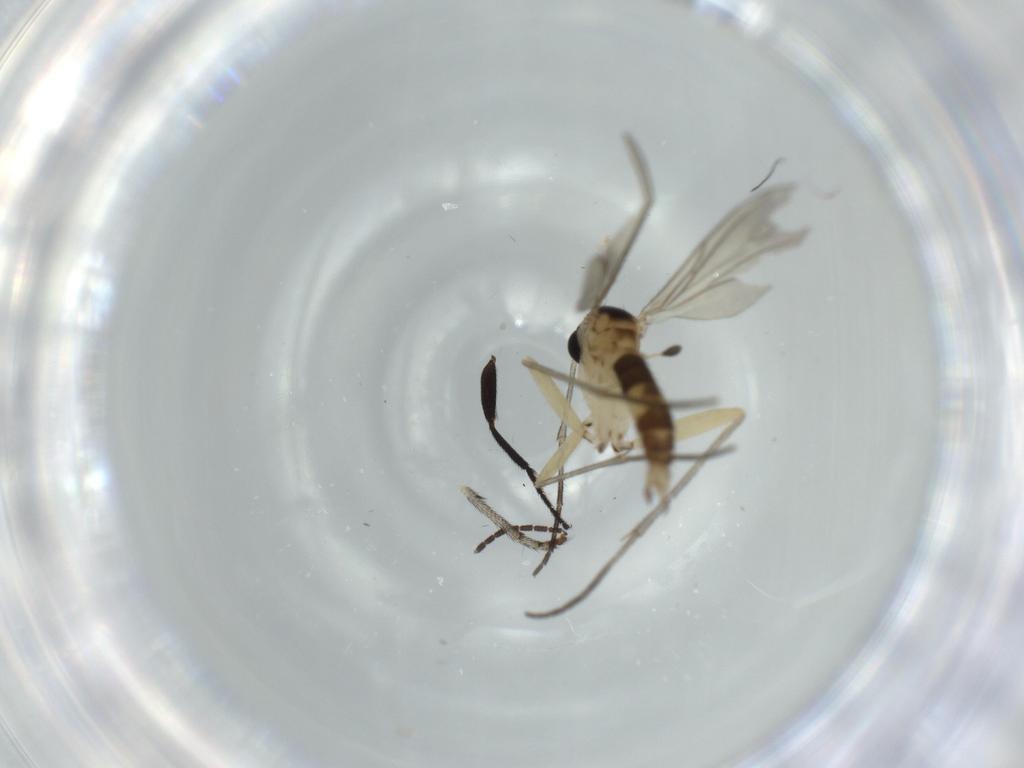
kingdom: Animalia
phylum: Arthropoda
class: Insecta
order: Diptera
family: Sciaridae
